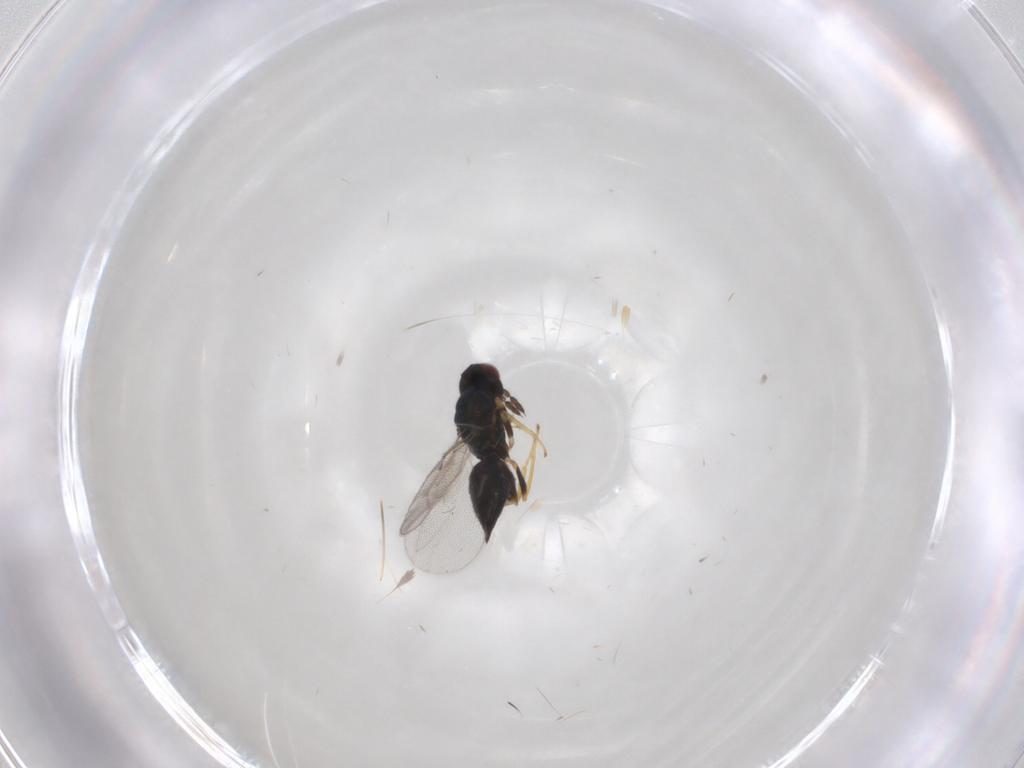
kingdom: Animalia
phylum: Arthropoda
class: Insecta
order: Hymenoptera
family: Eulophidae
